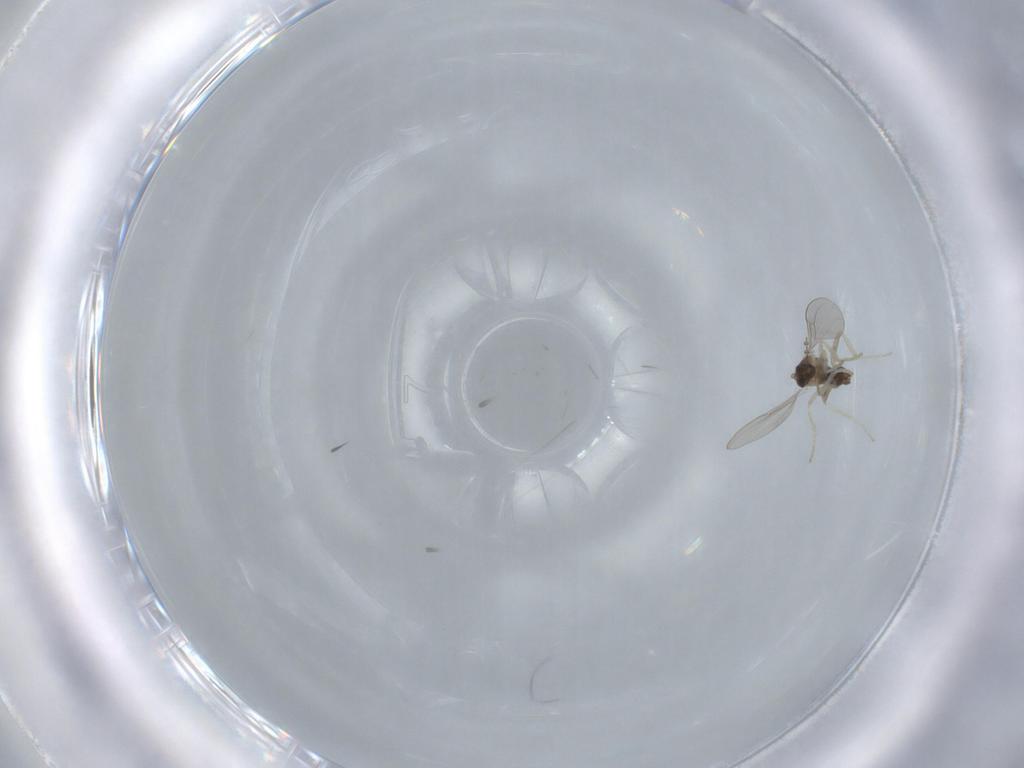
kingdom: Animalia
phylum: Arthropoda
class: Insecta
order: Diptera
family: Cecidomyiidae
